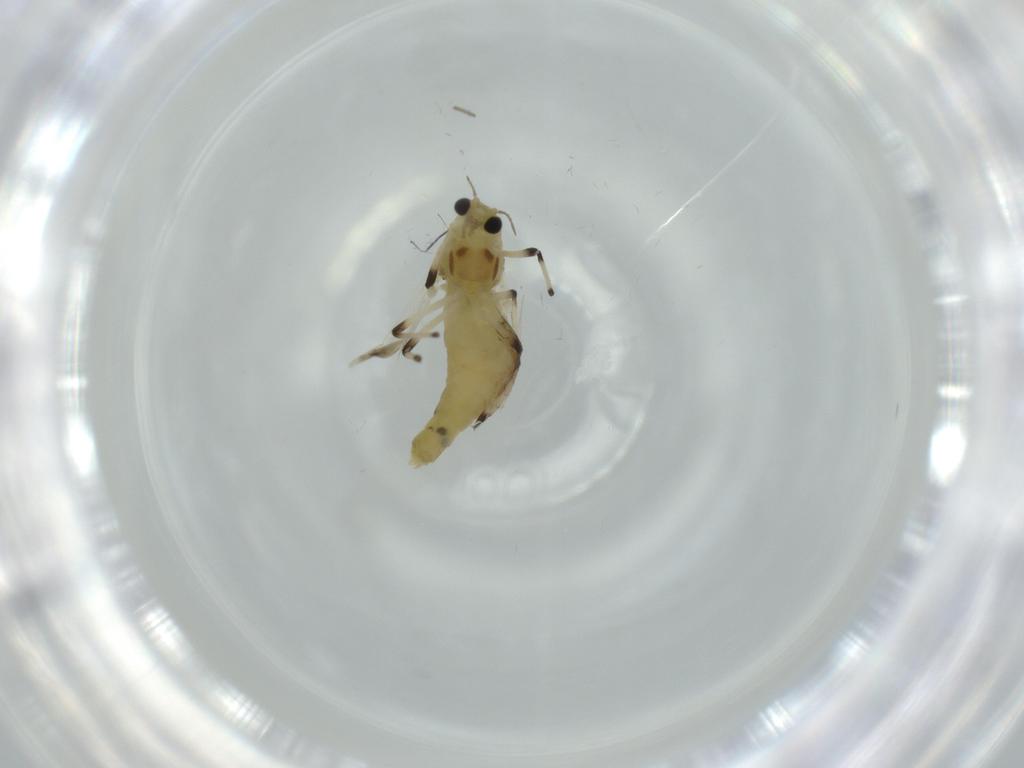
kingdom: Animalia
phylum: Arthropoda
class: Insecta
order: Diptera
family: Chironomidae
